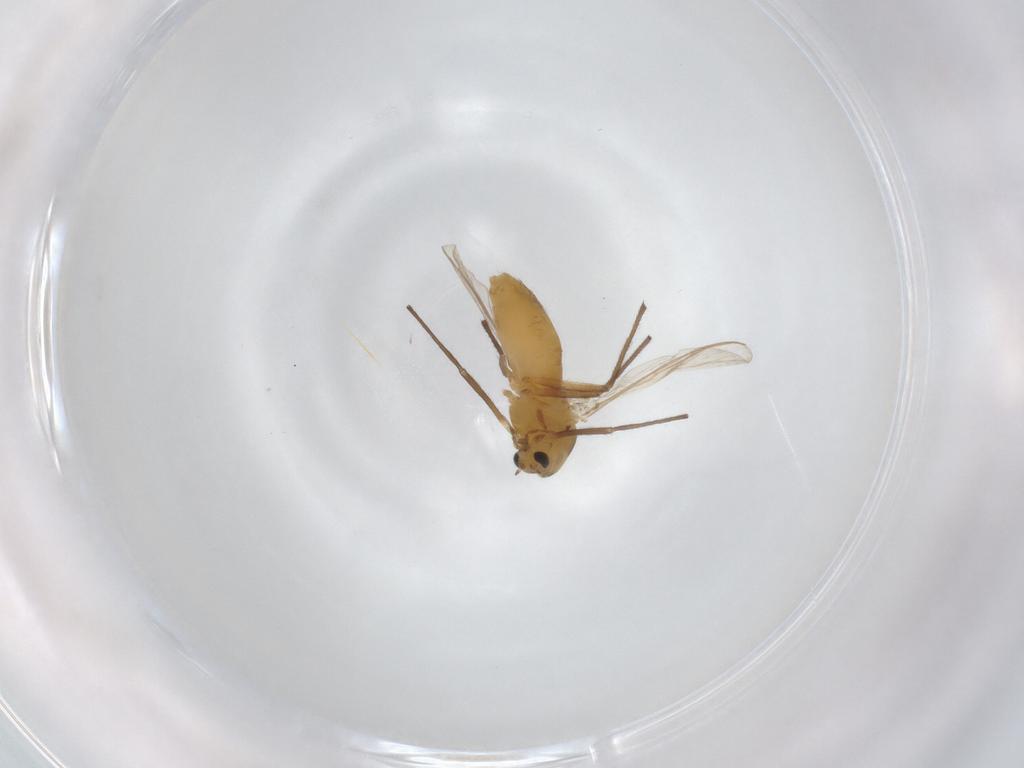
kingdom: Animalia
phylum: Arthropoda
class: Insecta
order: Diptera
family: Chironomidae
